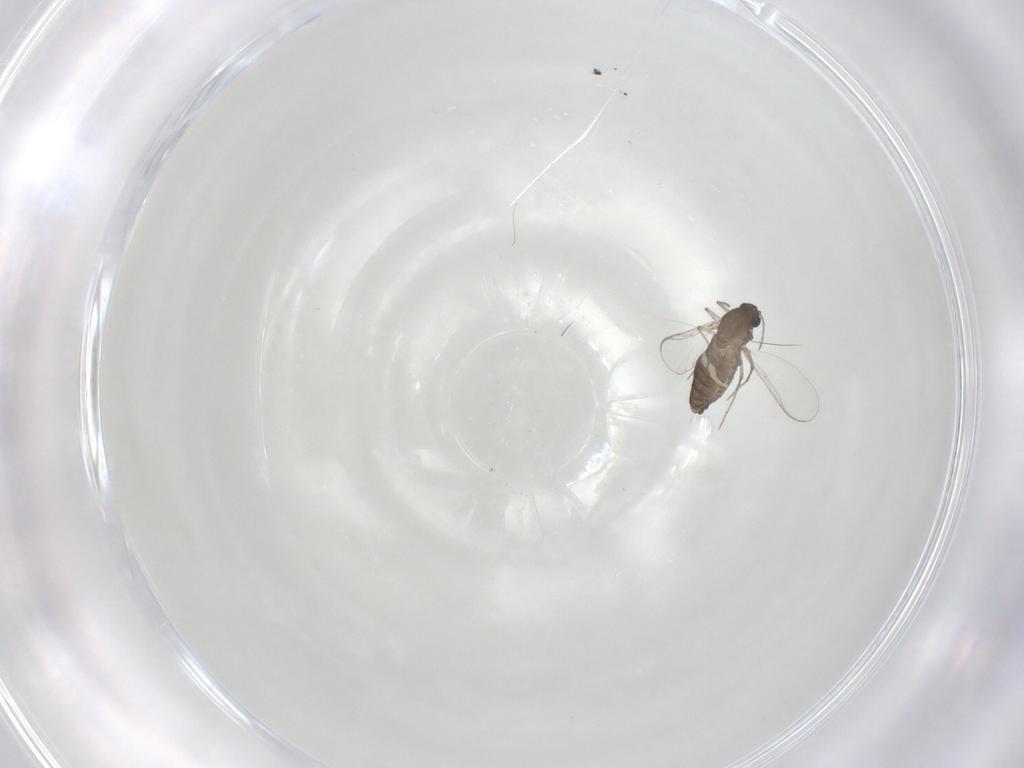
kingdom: Animalia
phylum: Arthropoda
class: Insecta
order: Diptera
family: Chironomidae
